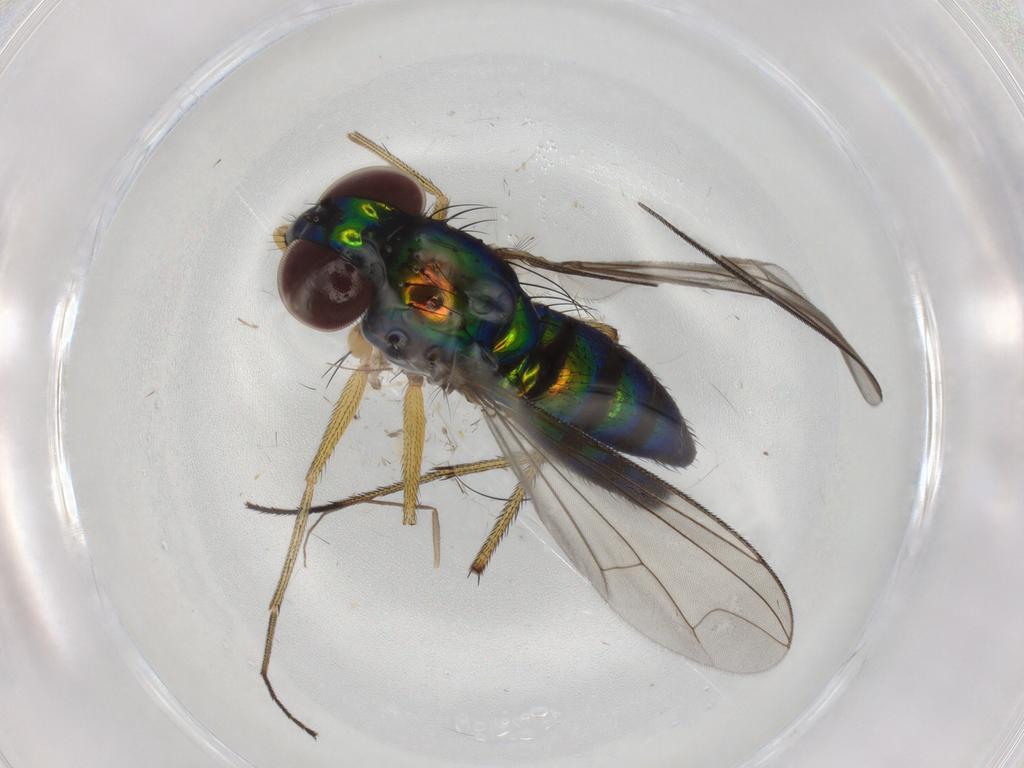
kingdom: Animalia
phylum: Arthropoda
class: Insecta
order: Diptera
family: Dolichopodidae
